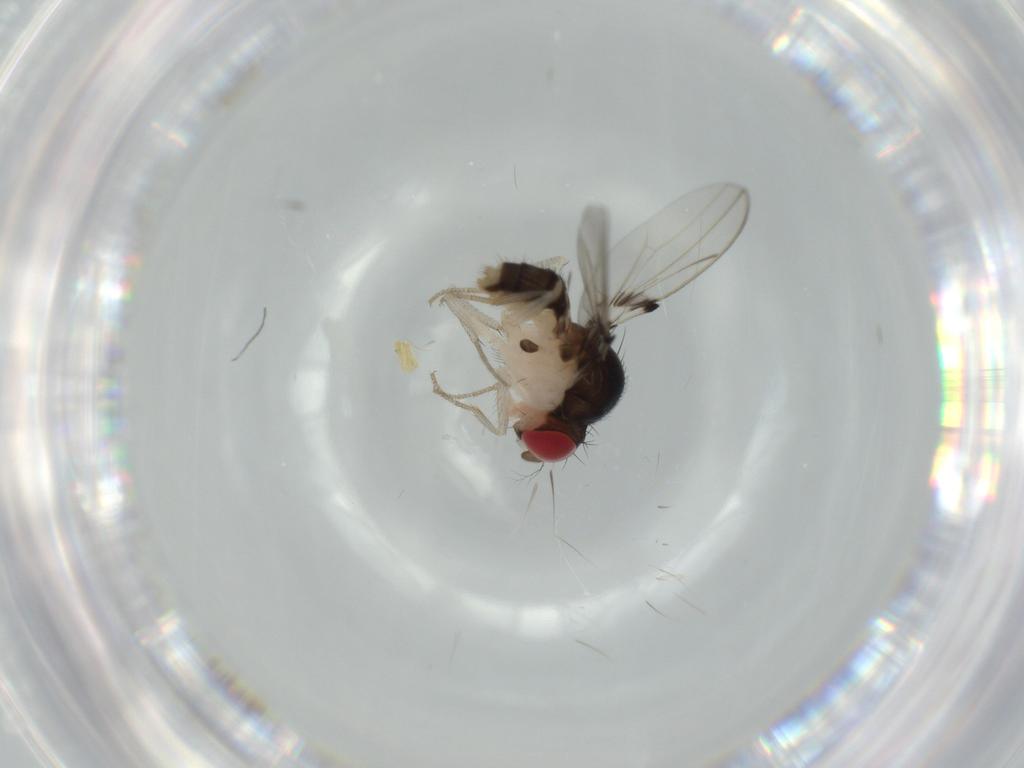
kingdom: Animalia
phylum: Arthropoda
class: Insecta
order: Diptera
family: Drosophilidae
